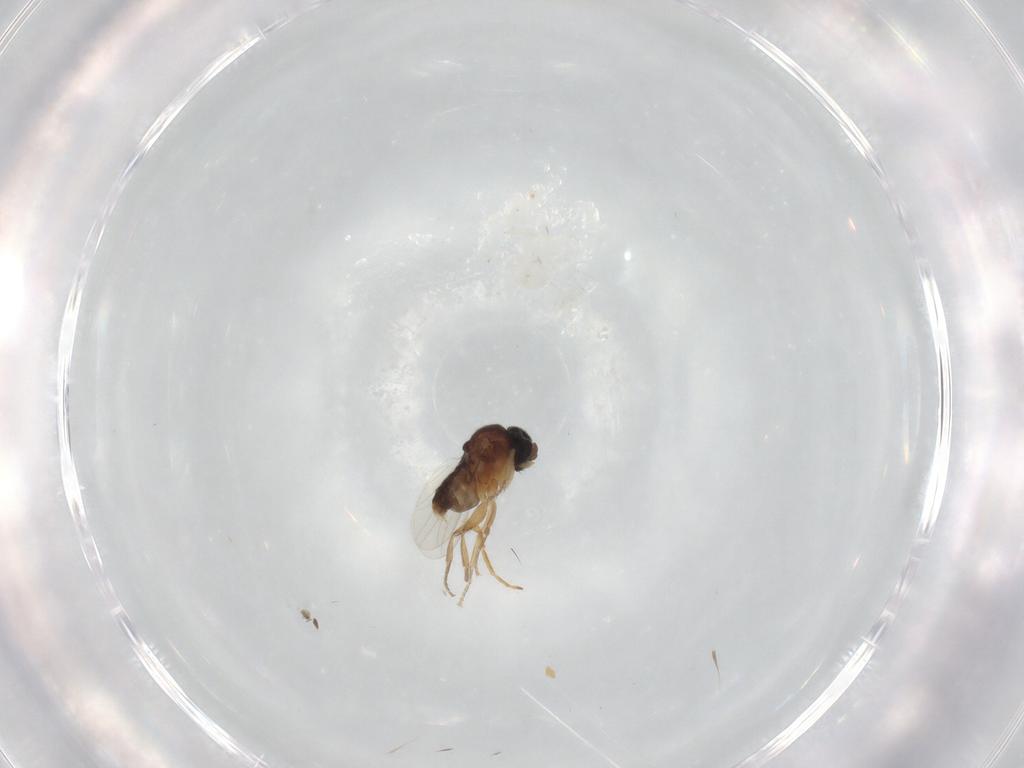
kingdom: Animalia
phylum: Arthropoda
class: Insecta
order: Diptera
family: Phoridae
